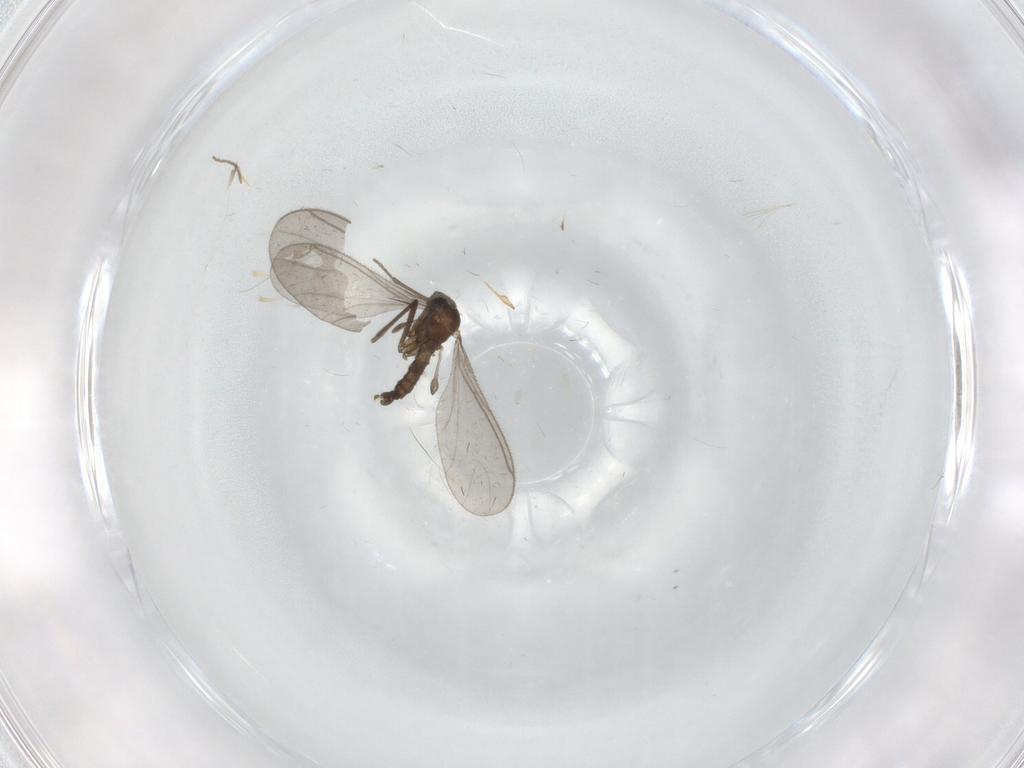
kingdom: Animalia
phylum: Arthropoda
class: Insecta
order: Diptera
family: Sciaridae
